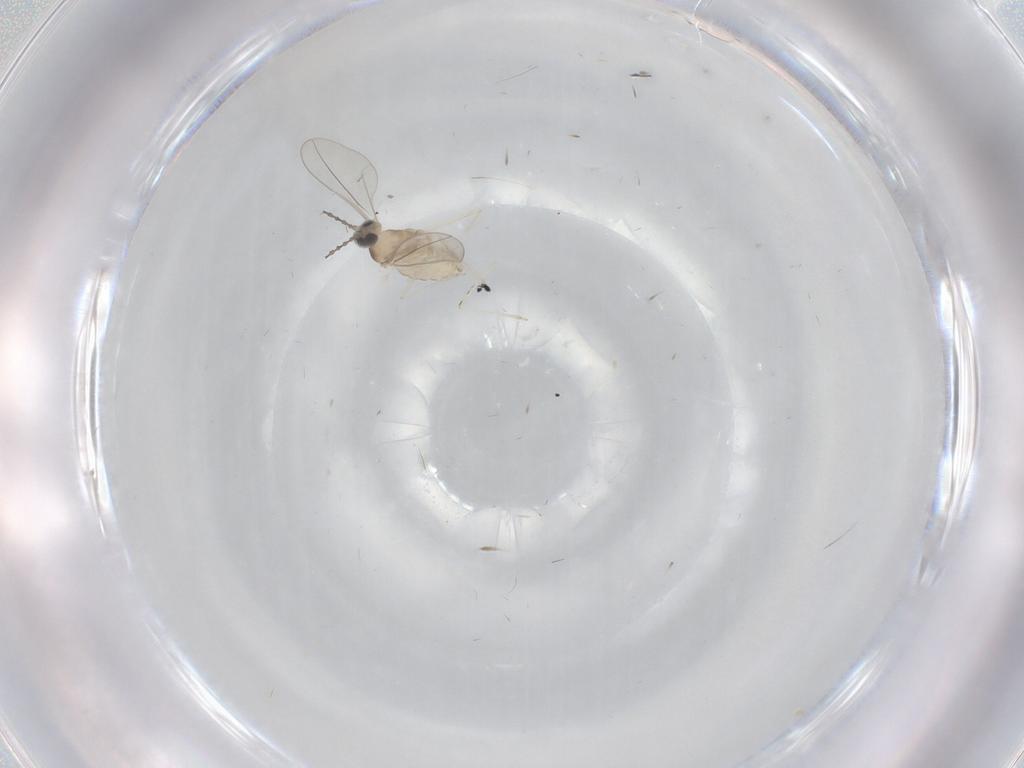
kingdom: Animalia
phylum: Arthropoda
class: Insecta
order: Diptera
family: Cecidomyiidae
